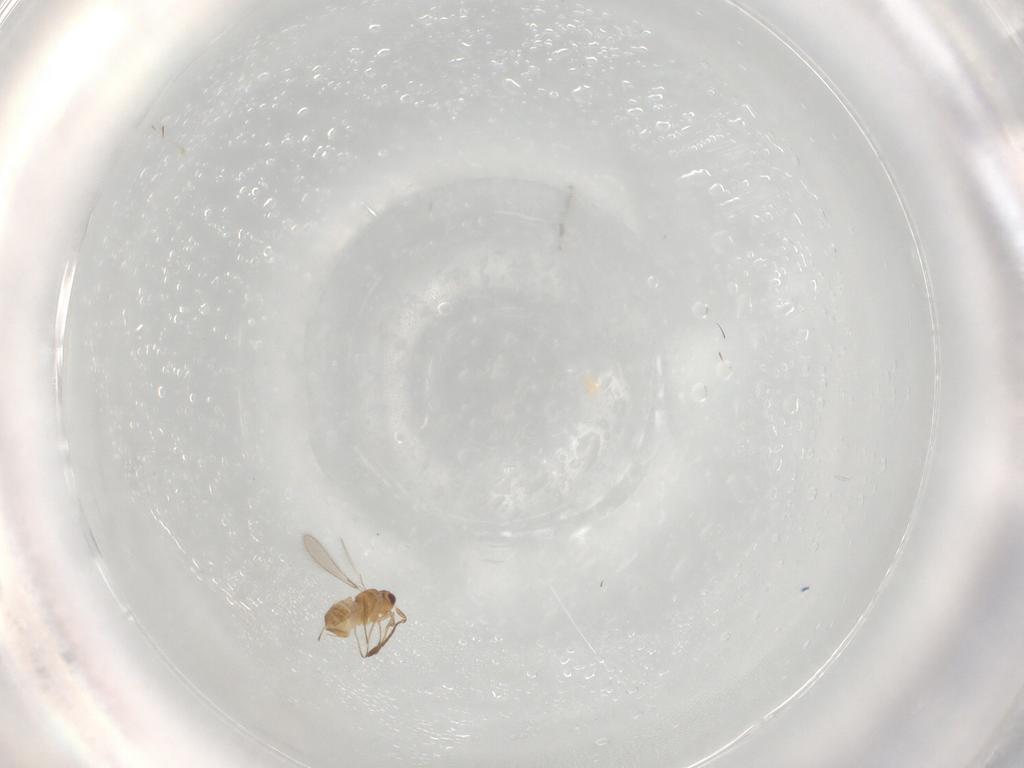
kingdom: Animalia
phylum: Arthropoda
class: Insecta
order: Hymenoptera
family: Mymaridae
